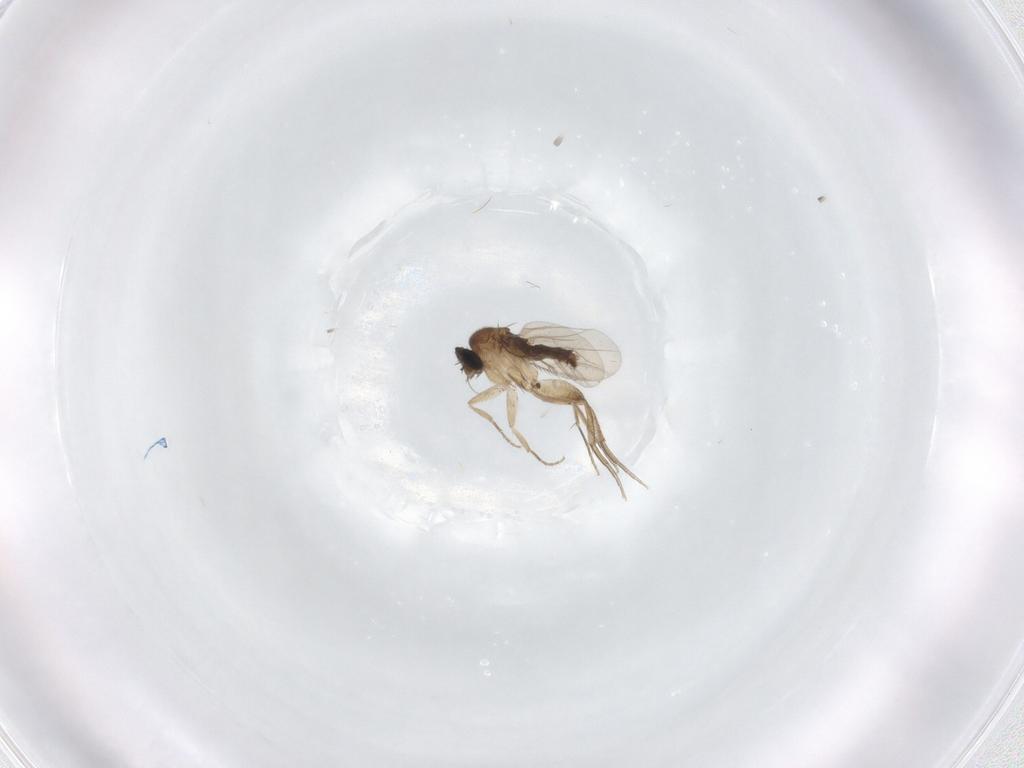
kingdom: Animalia
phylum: Arthropoda
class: Insecta
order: Diptera
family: Phoridae
